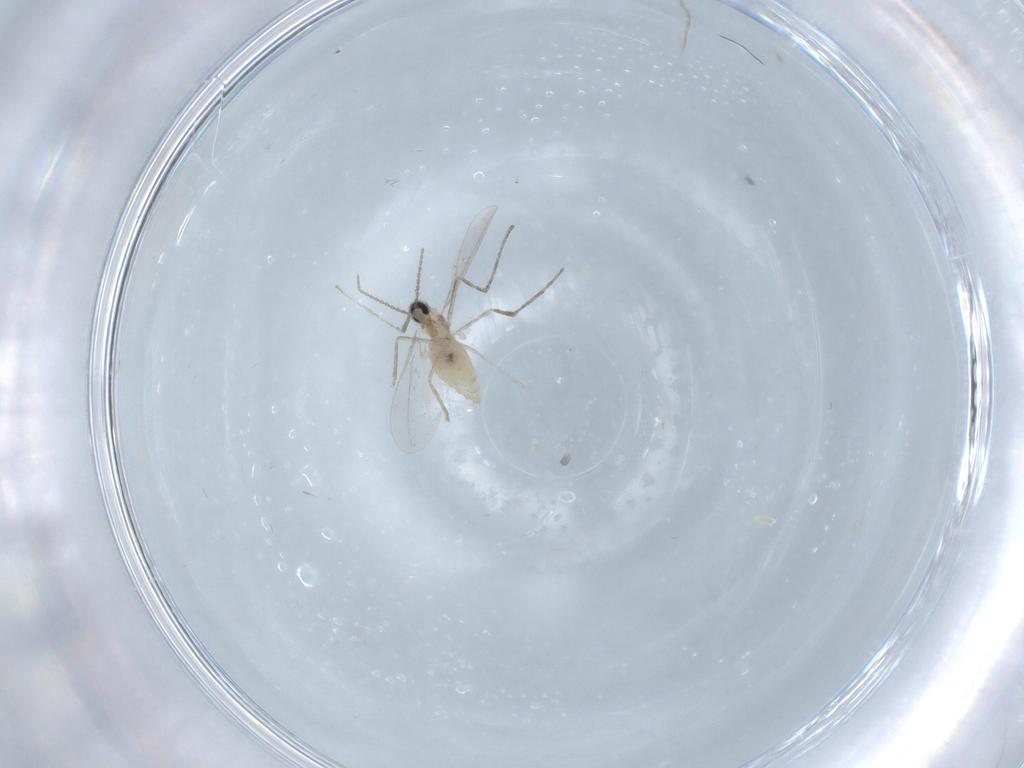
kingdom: Animalia
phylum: Arthropoda
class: Insecta
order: Diptera
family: Limoniidae
